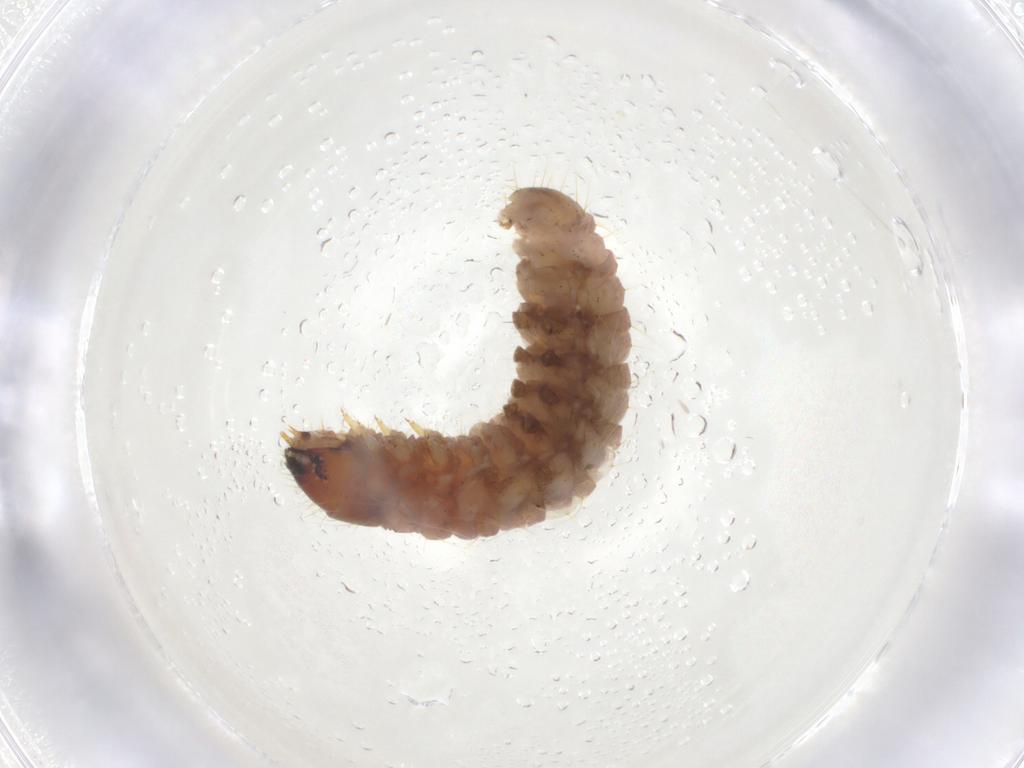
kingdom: Animalia
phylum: Arthropoda
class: Insecta
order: Lepidoptera
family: Coleophoridae
